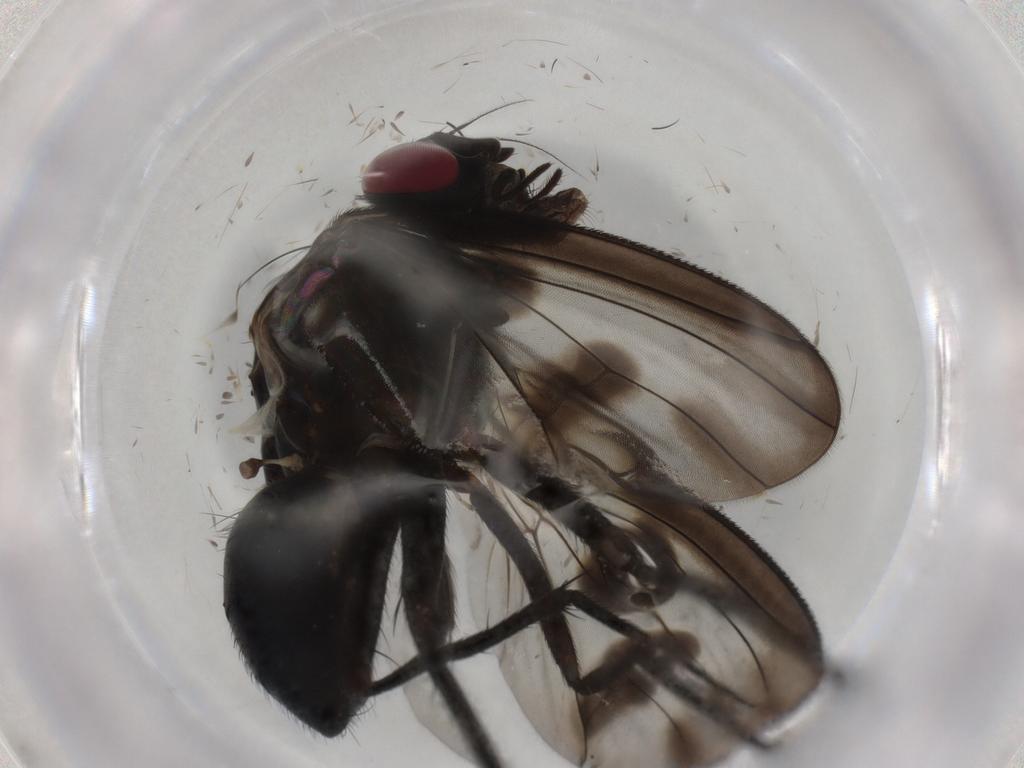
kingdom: Animalia
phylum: Arthropoda
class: Insecta
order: Diptera
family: Muscidae
